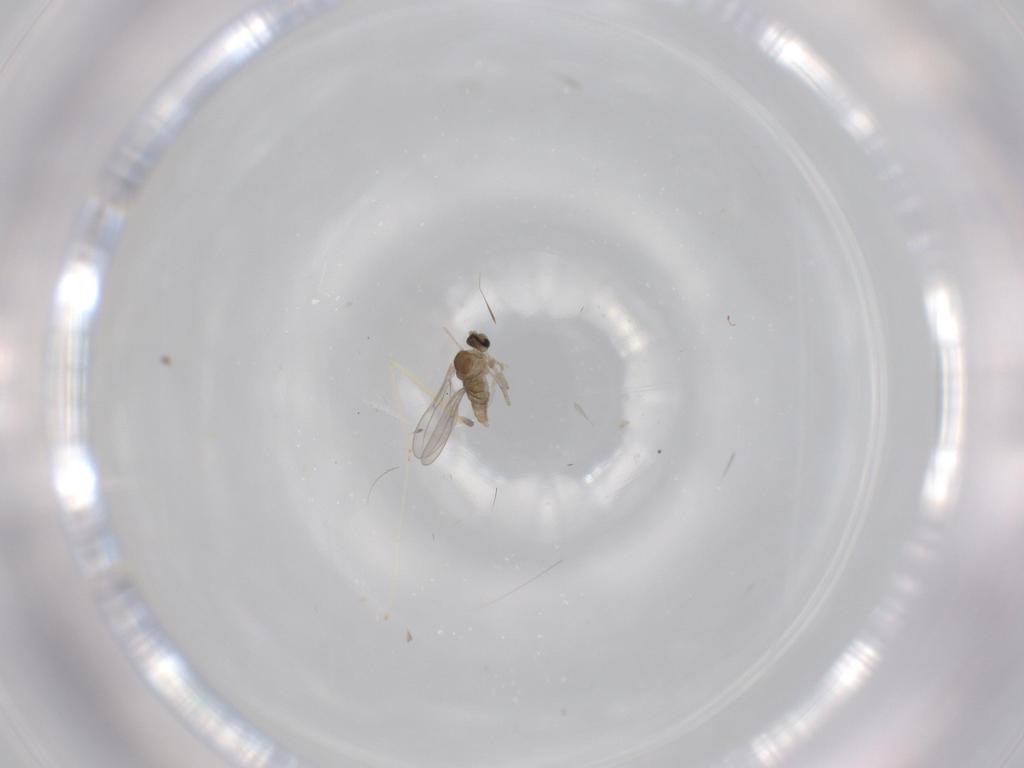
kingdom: Animalia
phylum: Arthropoda
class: Insecta
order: Diptera
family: Cecidomyiidae
